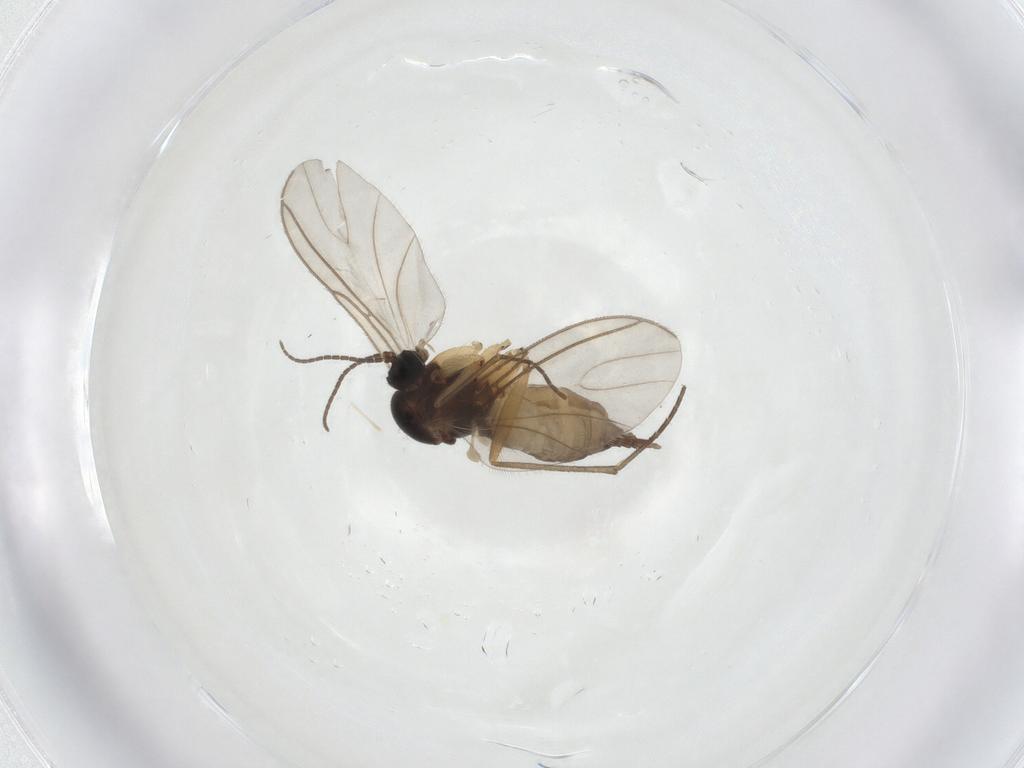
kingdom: Animalia
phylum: Arthropoda
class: Insecta
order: Diptera
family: Sciaridae
